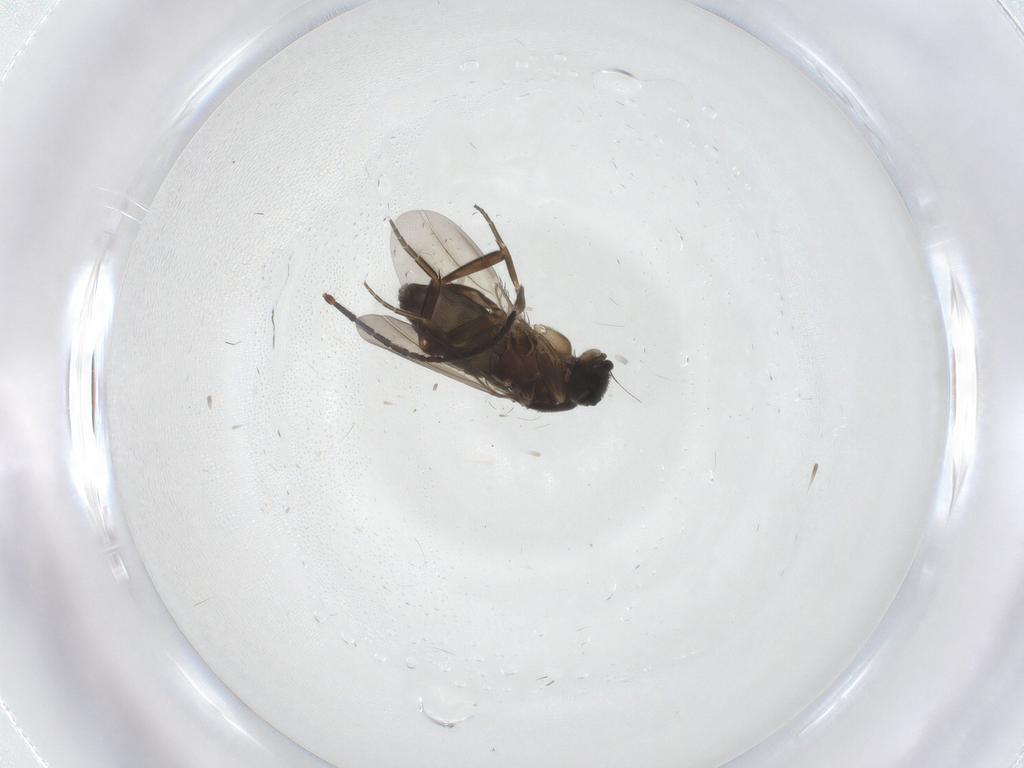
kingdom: Animalia
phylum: Arthropoda
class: Insecta
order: Diptera
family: Phoridae
